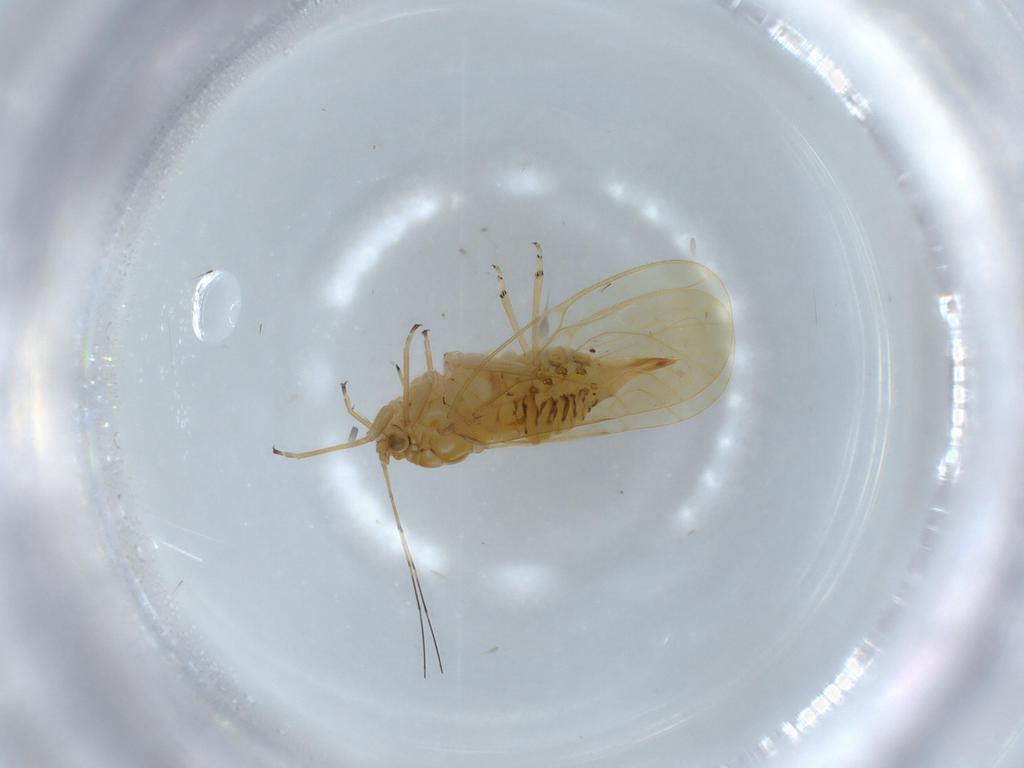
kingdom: Animalia
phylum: Arthropoda
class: Insecta
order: Hemiptera
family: Psyllidae
